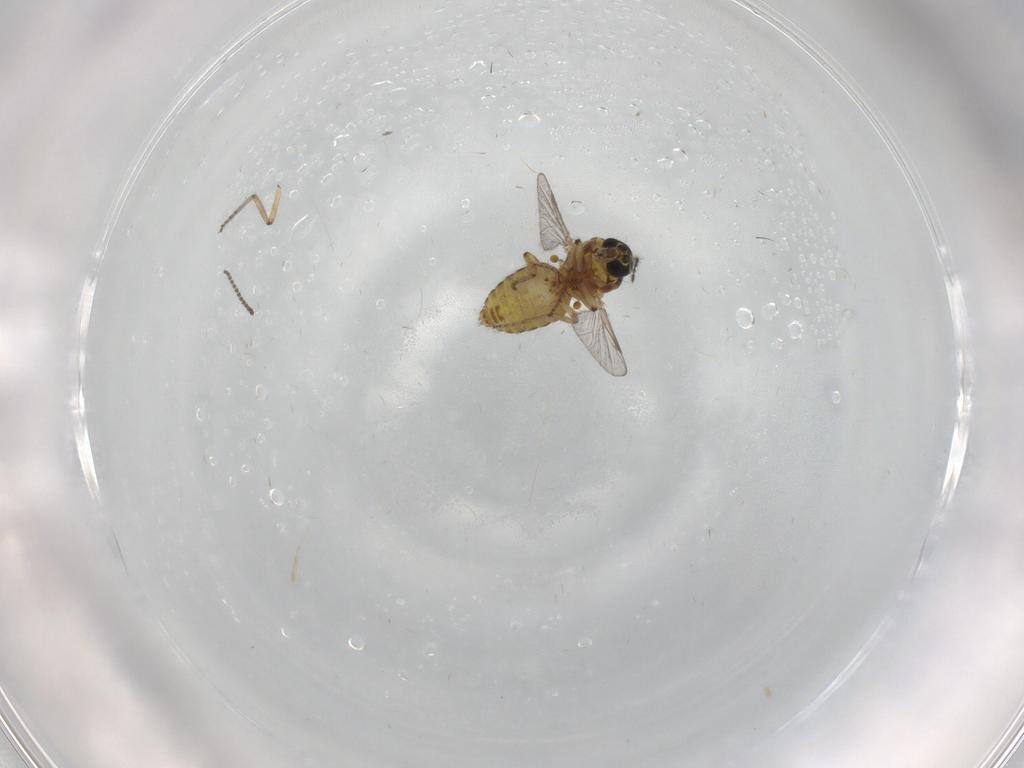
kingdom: Animalia
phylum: Arthropoda
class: Insecta
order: Diptera
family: Ceratopogonidae
